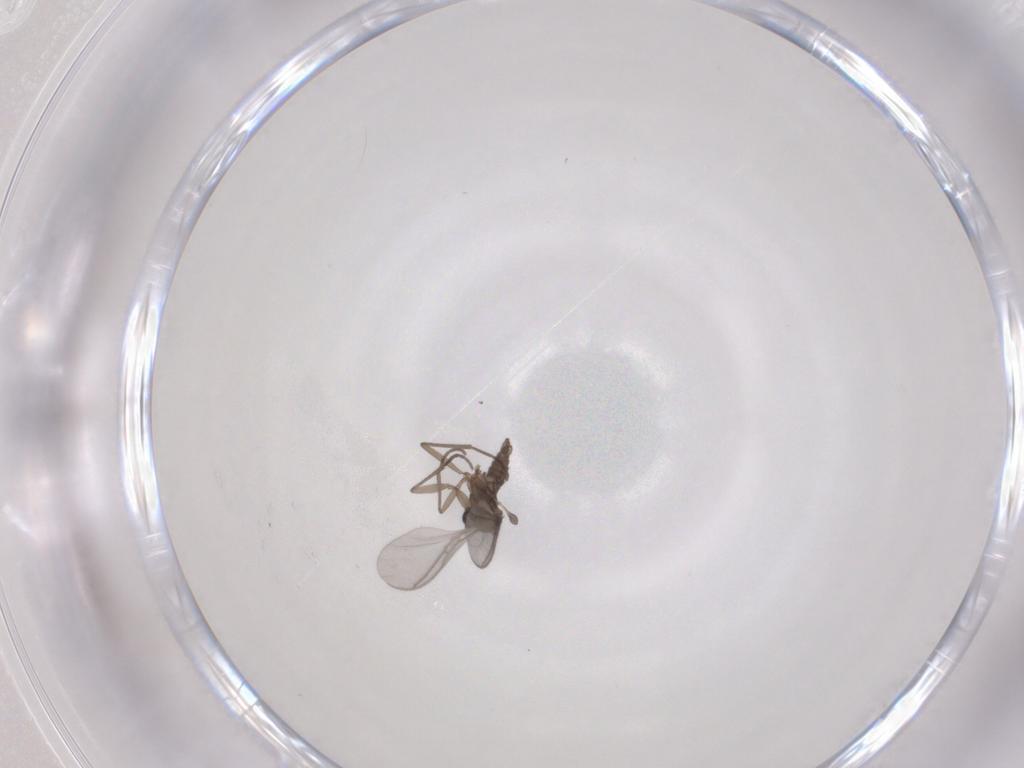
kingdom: Animalia
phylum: Arthropoda
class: Insecta
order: Diptera
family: Sciaridae
